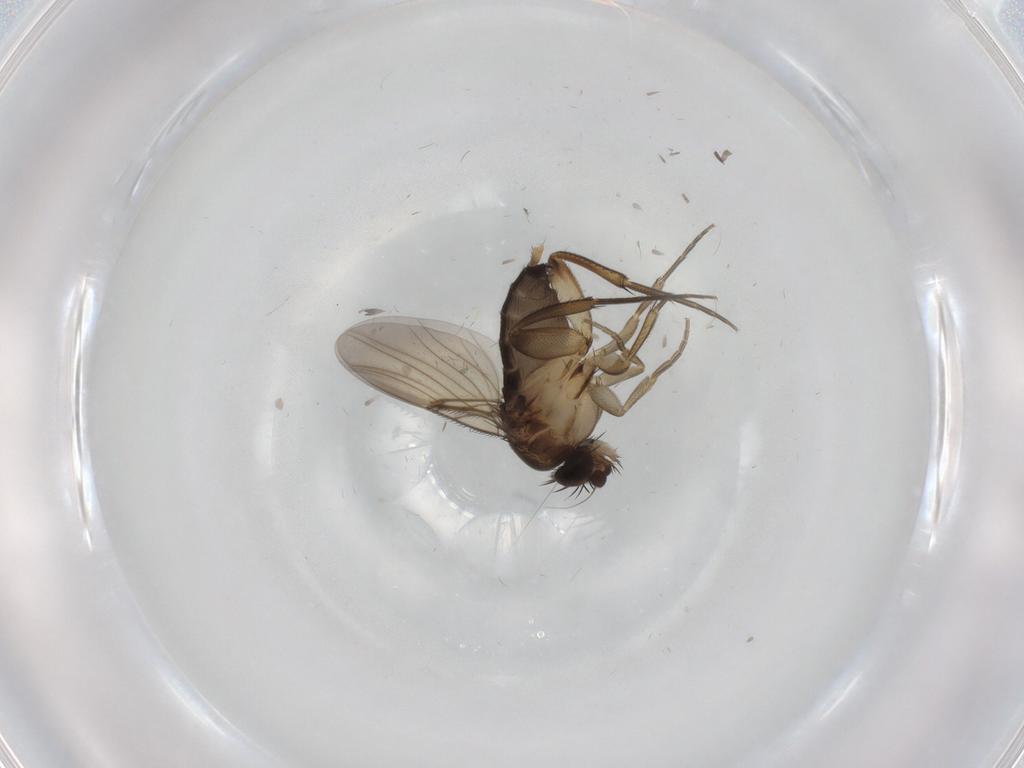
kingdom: Animalia
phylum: Arthropoda
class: Insecta
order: Diptera
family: Phoridae
